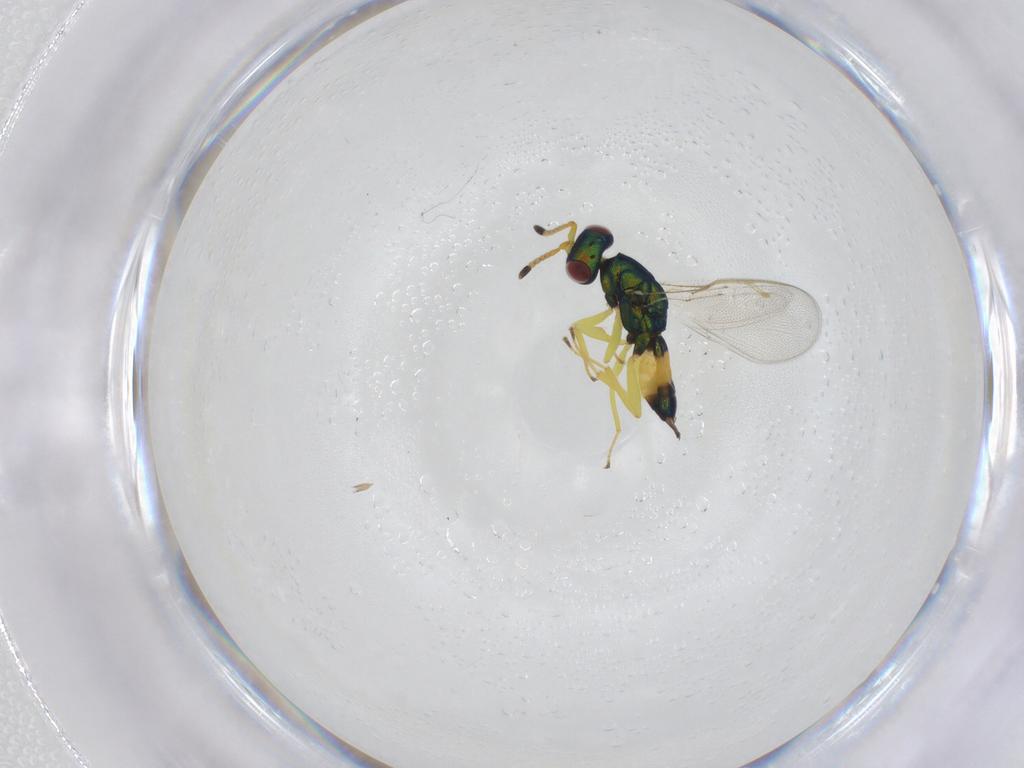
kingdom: Animalia
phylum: Arthropoda
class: Insecta
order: Hymenoptera
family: Pteromalidae
